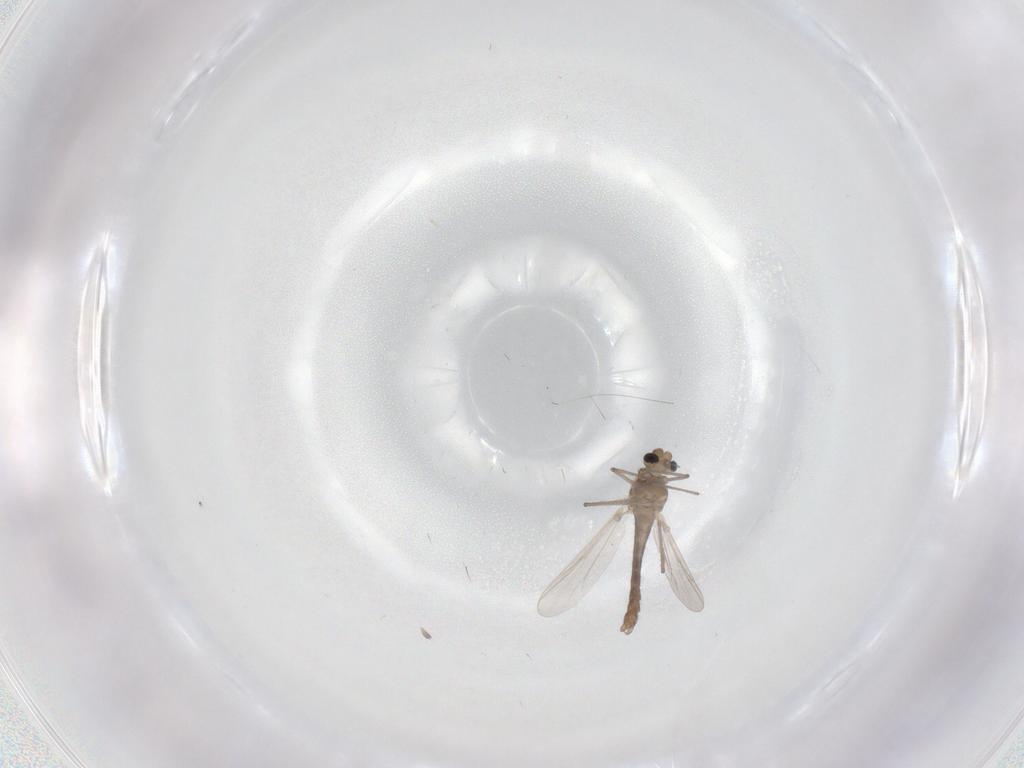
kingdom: Animalia
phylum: Arthropoda
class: Insecta
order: Diptera
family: Chironomidae
